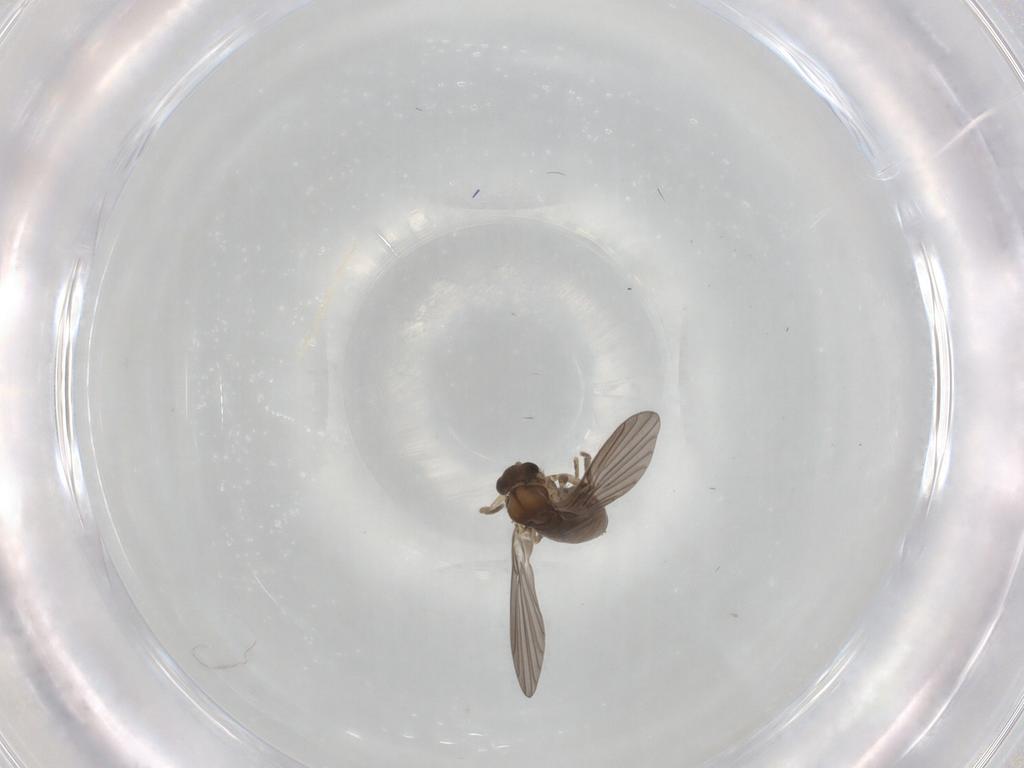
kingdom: Animalia
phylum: Arthropoda
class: Insecta
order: Diptera
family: Psychodidae
